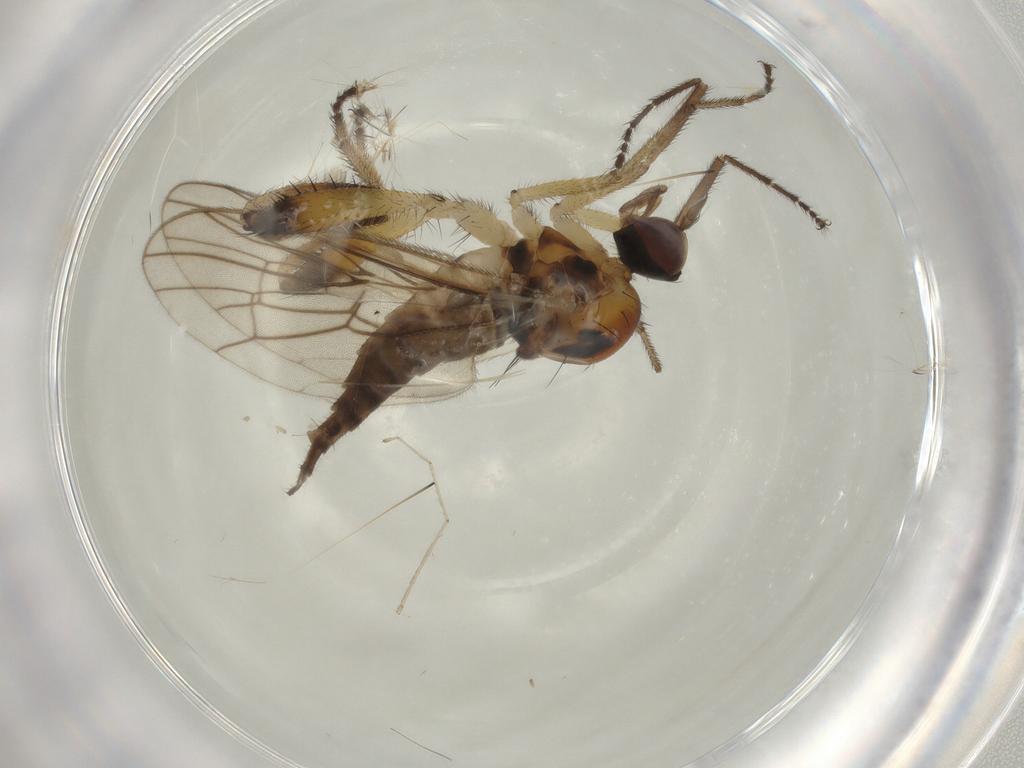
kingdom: Animalia
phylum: Arthropoda
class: Insecta
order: Diptera
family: Hybotidae
